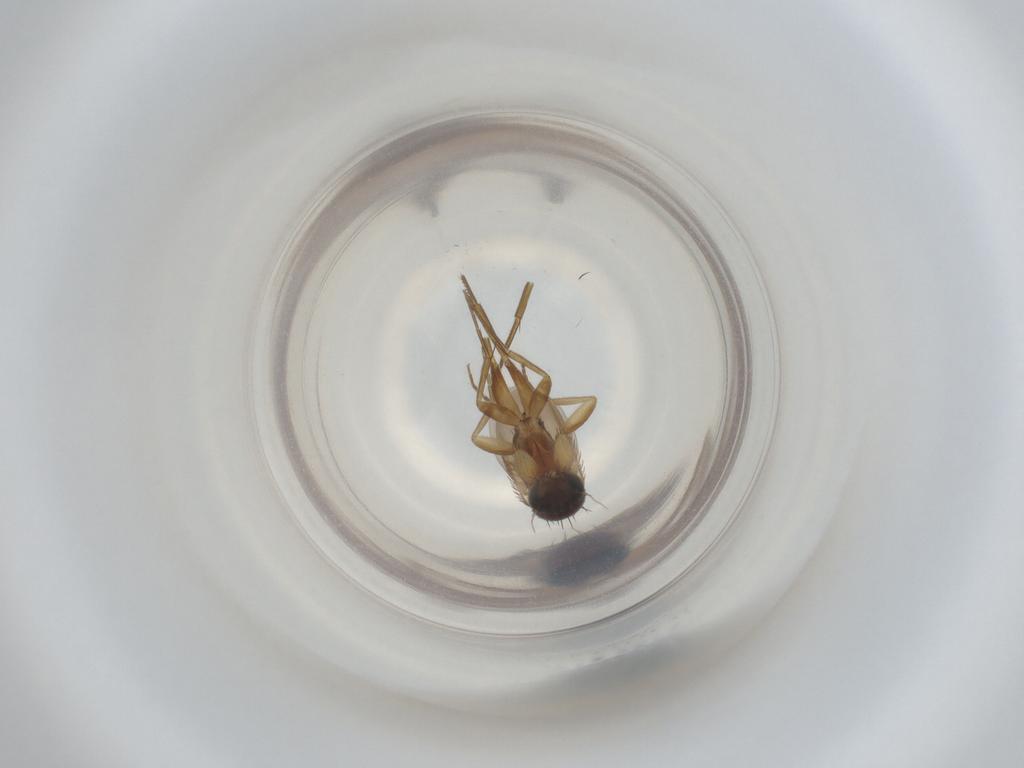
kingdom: Animalia
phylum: Arthropoda
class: Insecta
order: Diptera
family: Phoridae
